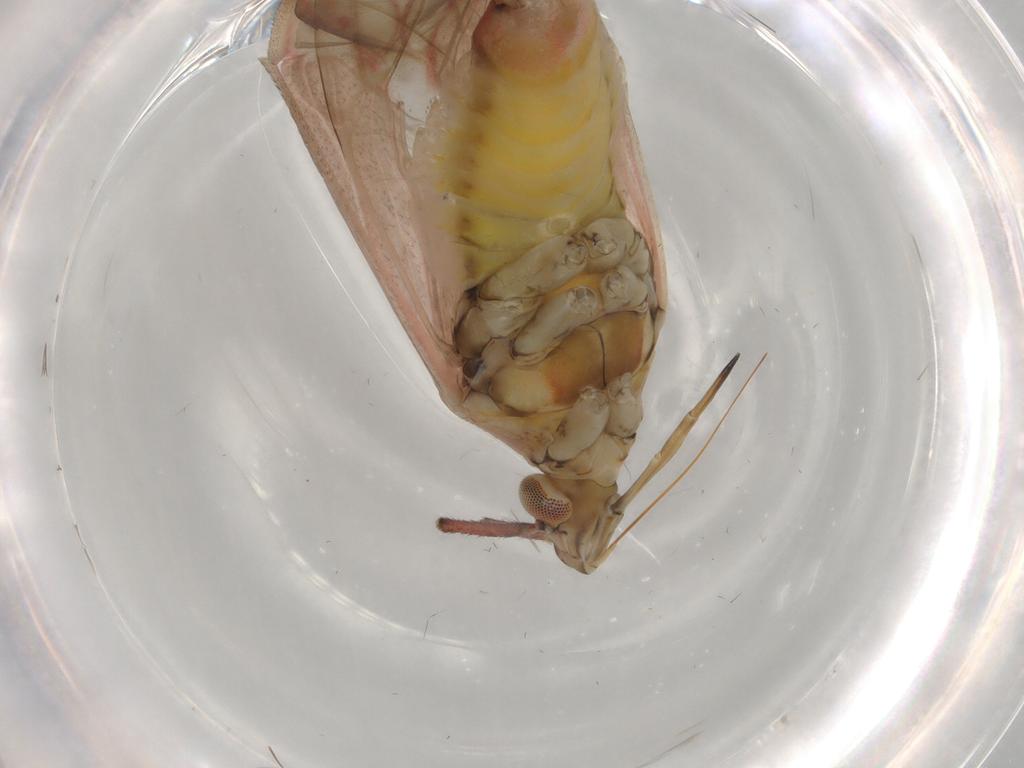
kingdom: Animalia
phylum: Arthropoda
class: Insecta
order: Hemiptera
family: Miridae
